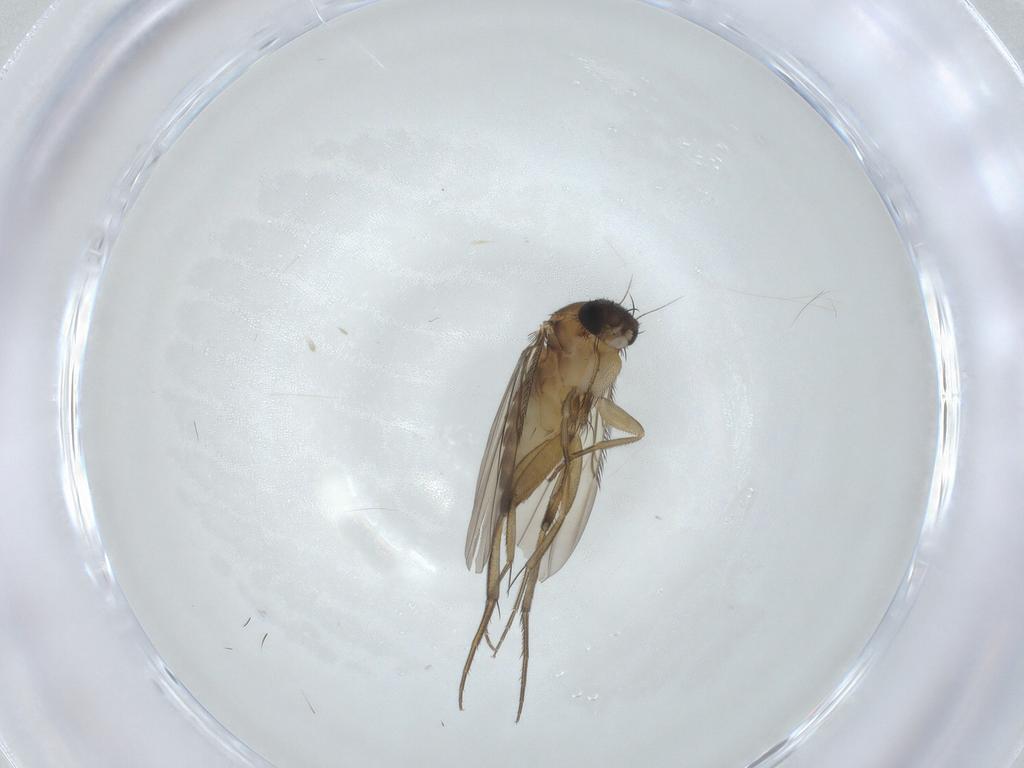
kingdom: Animalia
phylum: Arthropoda
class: Insecta
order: Diptera
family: Phoridae
